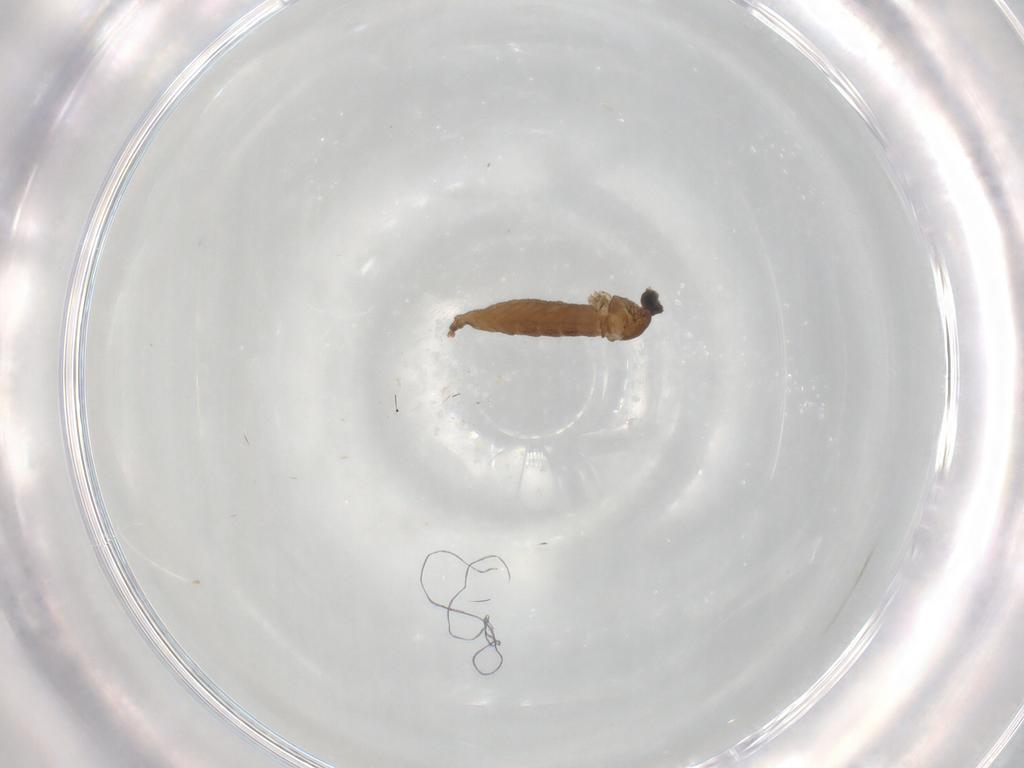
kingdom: Animalia
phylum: Arthropoda
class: Insecta
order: Diptera
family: Cecidomyiidae
